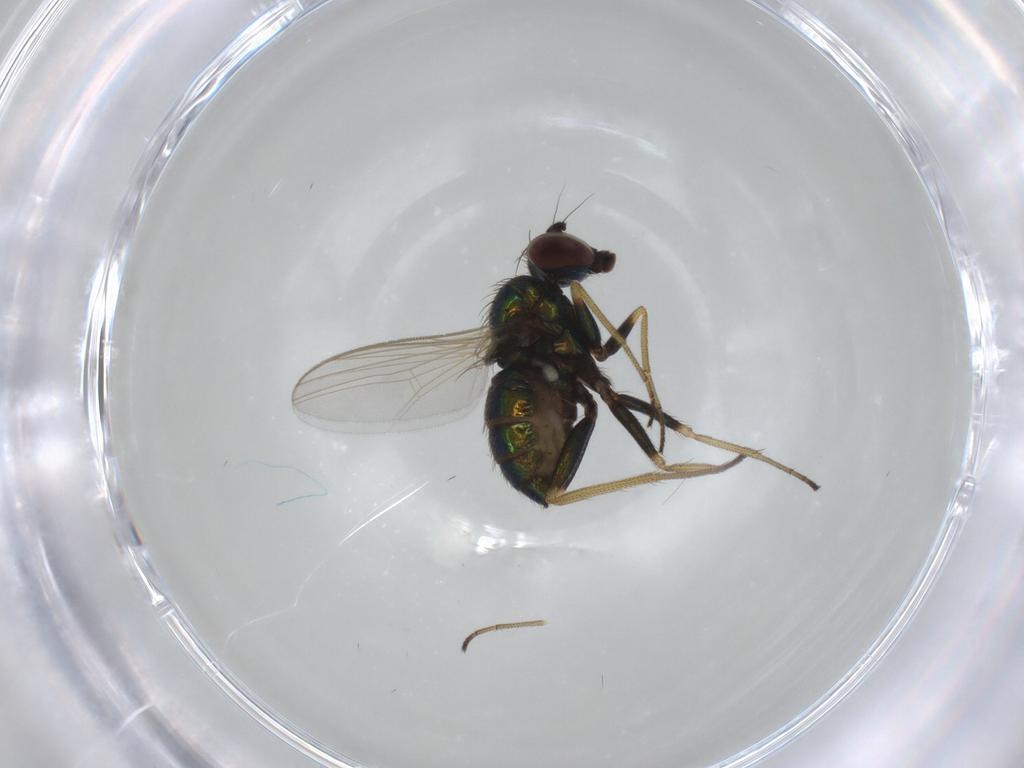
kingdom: Animalia
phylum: Arthropoda
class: Insecta
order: Diptera
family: Dolichopodidae
